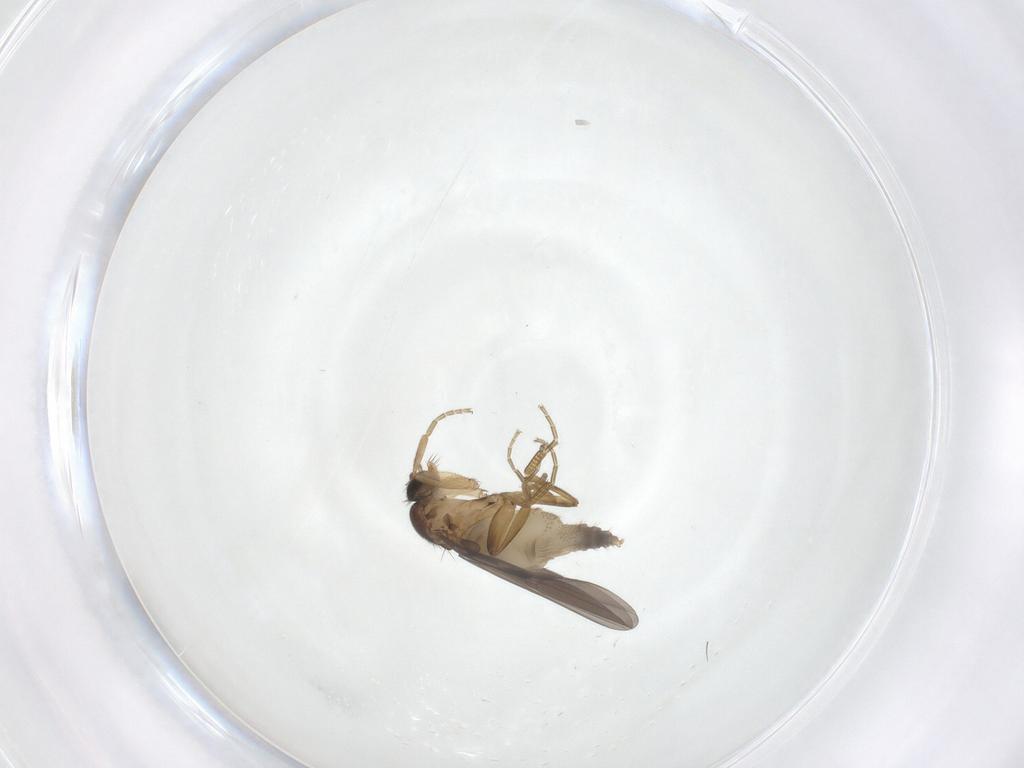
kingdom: Animalia
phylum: Arthropoda
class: Insecta
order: Diptera
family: Phoridae
